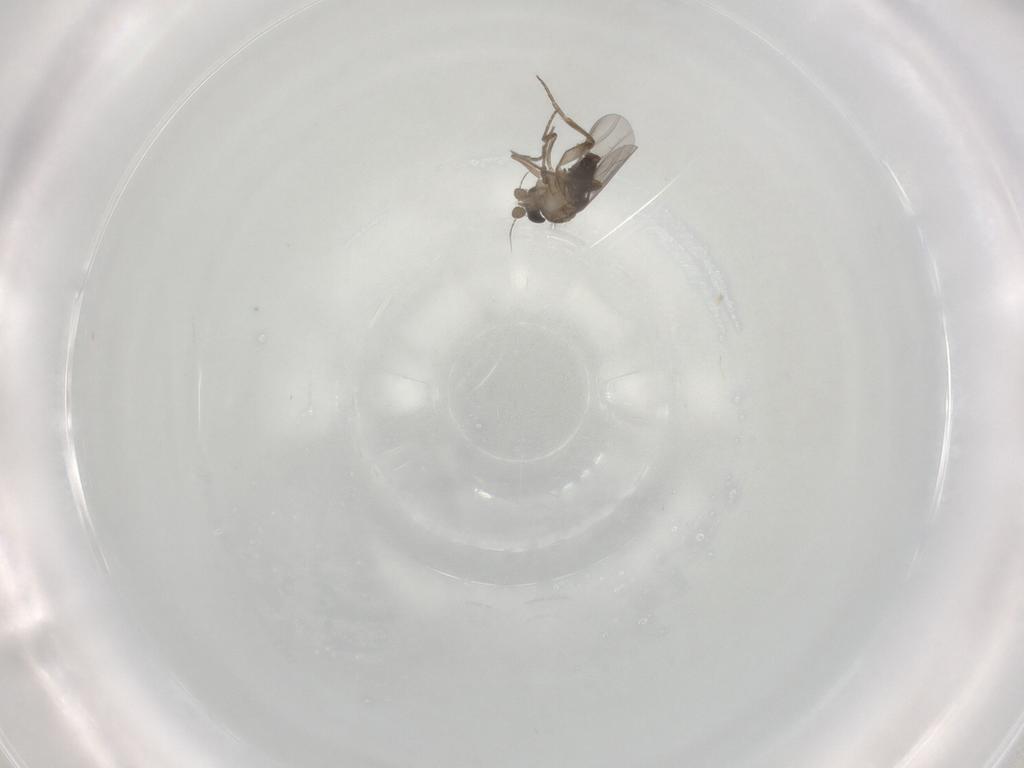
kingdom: Animalia
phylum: Arthropoda
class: Insecta
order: Diptera
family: Phoridae
